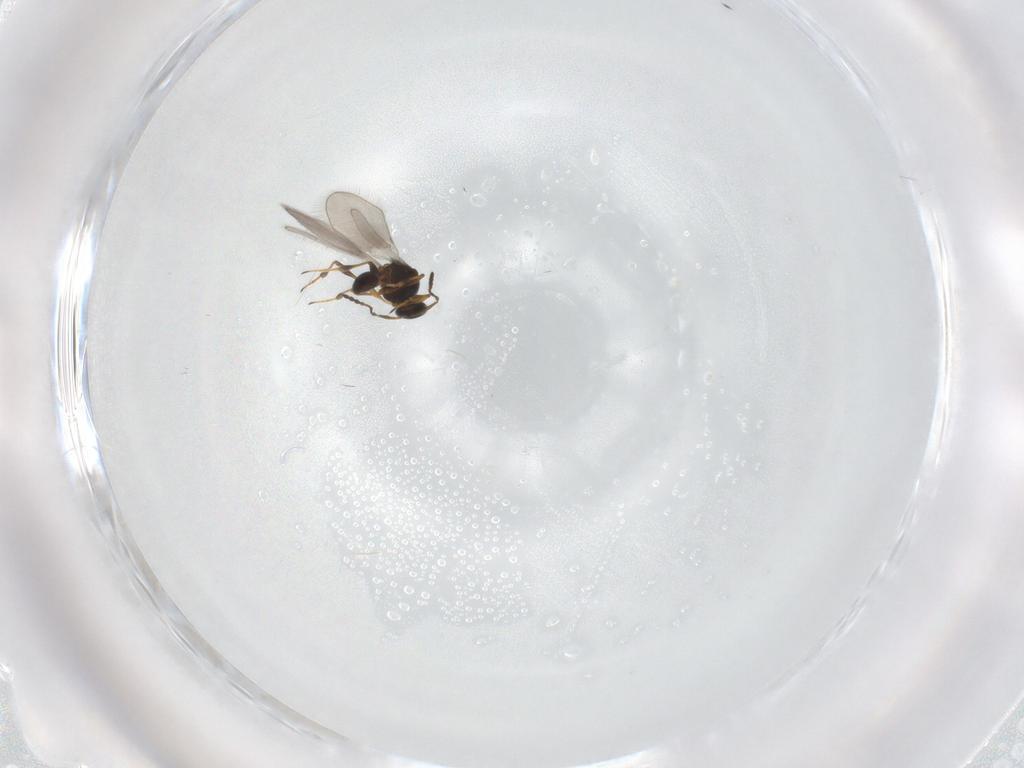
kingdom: Animalia
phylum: Arthropoda
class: Insecta
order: Hymenoptera
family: Platygastridae
